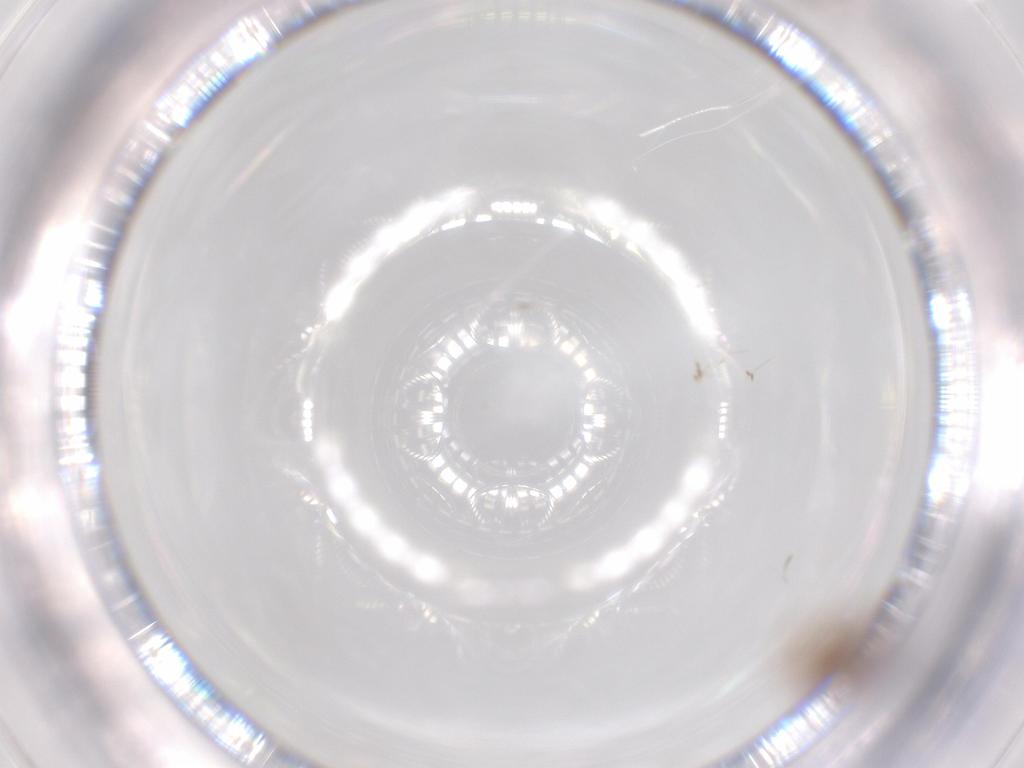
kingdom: Animalia
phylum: Arthropoda
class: Insecta
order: Coleoptera
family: Aderidae
